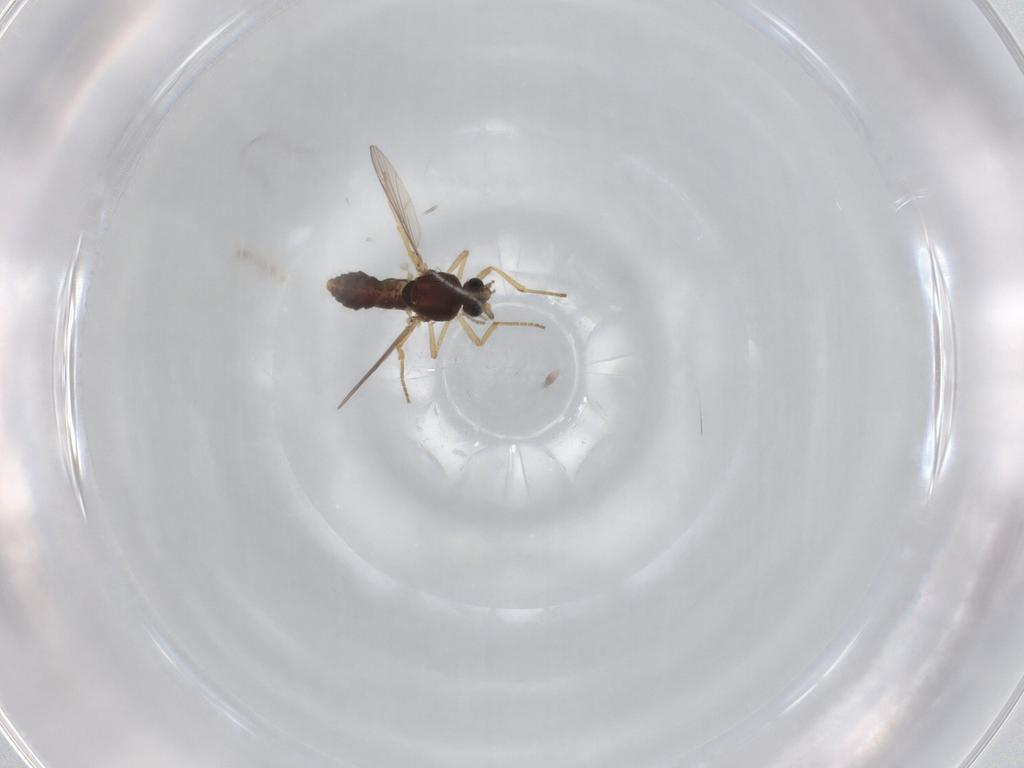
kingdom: Animalia
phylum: Arthropoda
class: Insecta
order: Diptera
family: Ceratopogonidae
